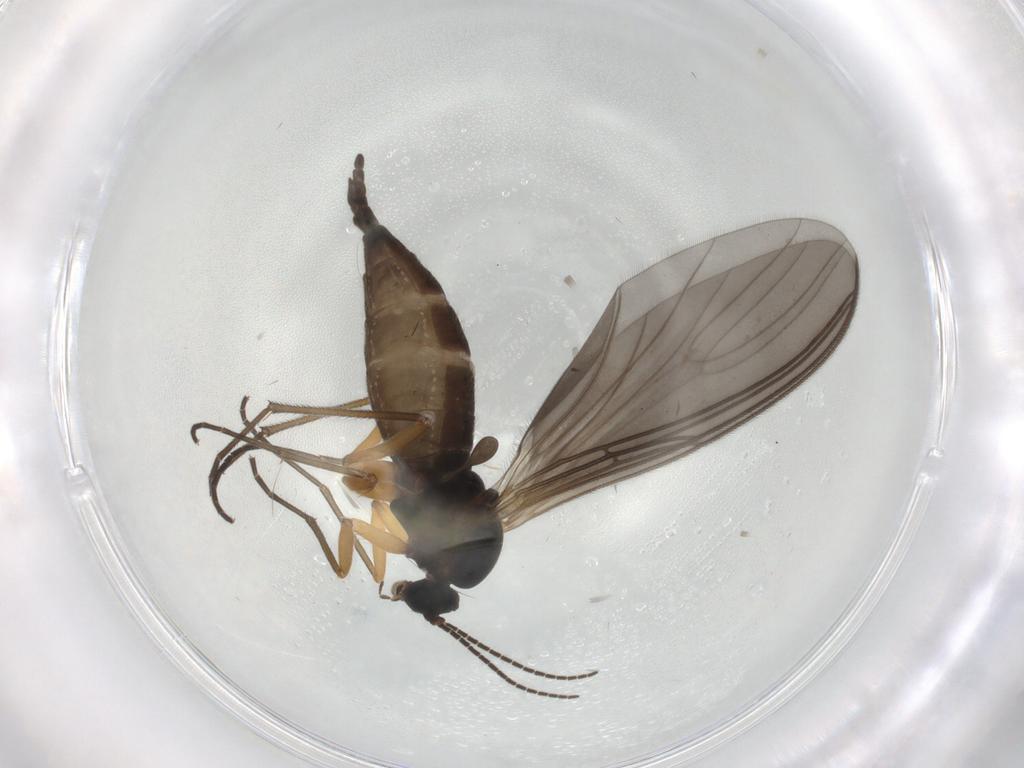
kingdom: Animalia
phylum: Arthropoda
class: Insecta
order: Diptera
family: Sciaridae
